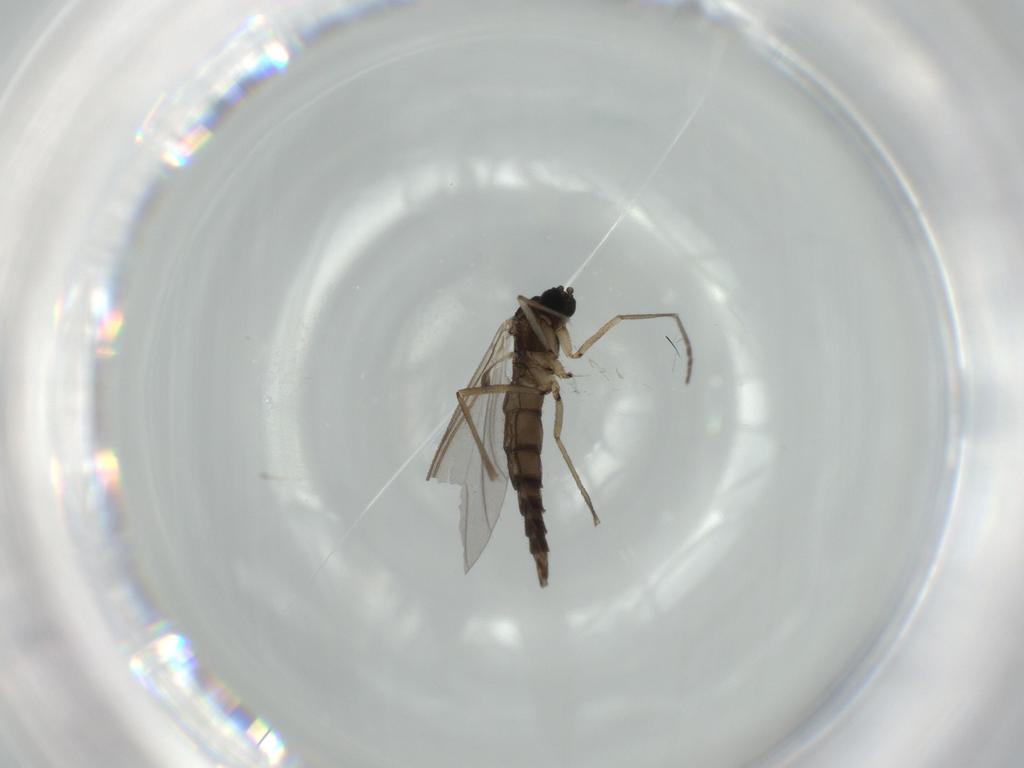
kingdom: Animalia
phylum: Arthropoda
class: Insecta
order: Diptera
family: Sciaridae
